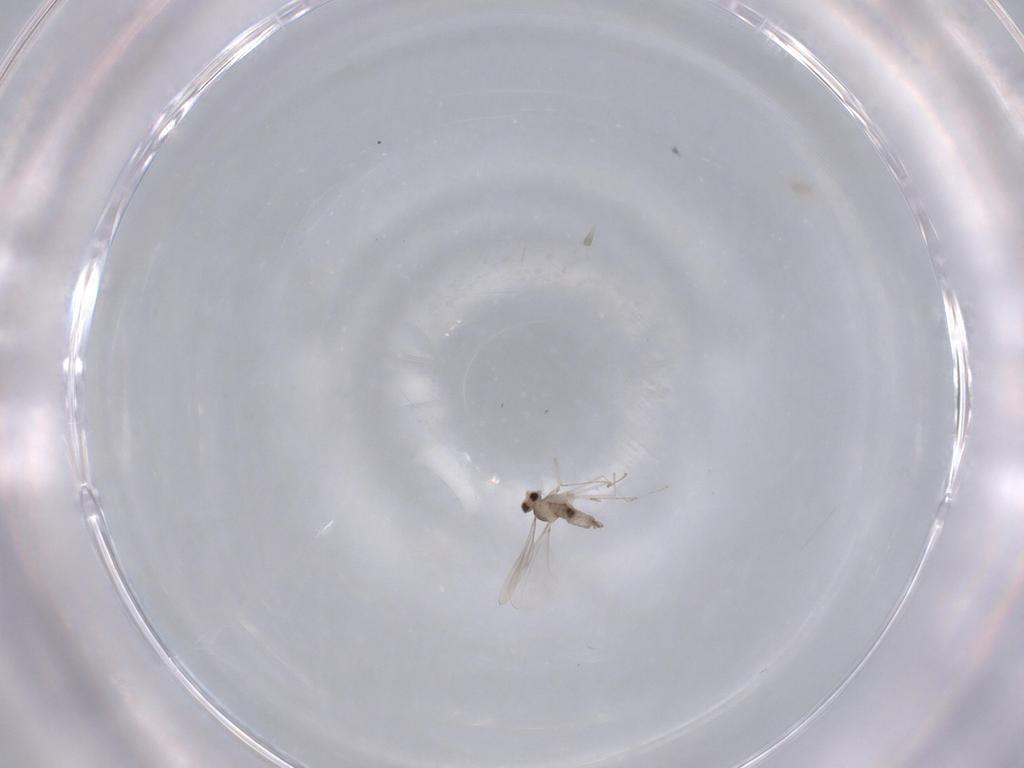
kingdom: Animalia
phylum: Arthropoda
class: Insecta
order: Diptera
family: Cecidomyiidae
